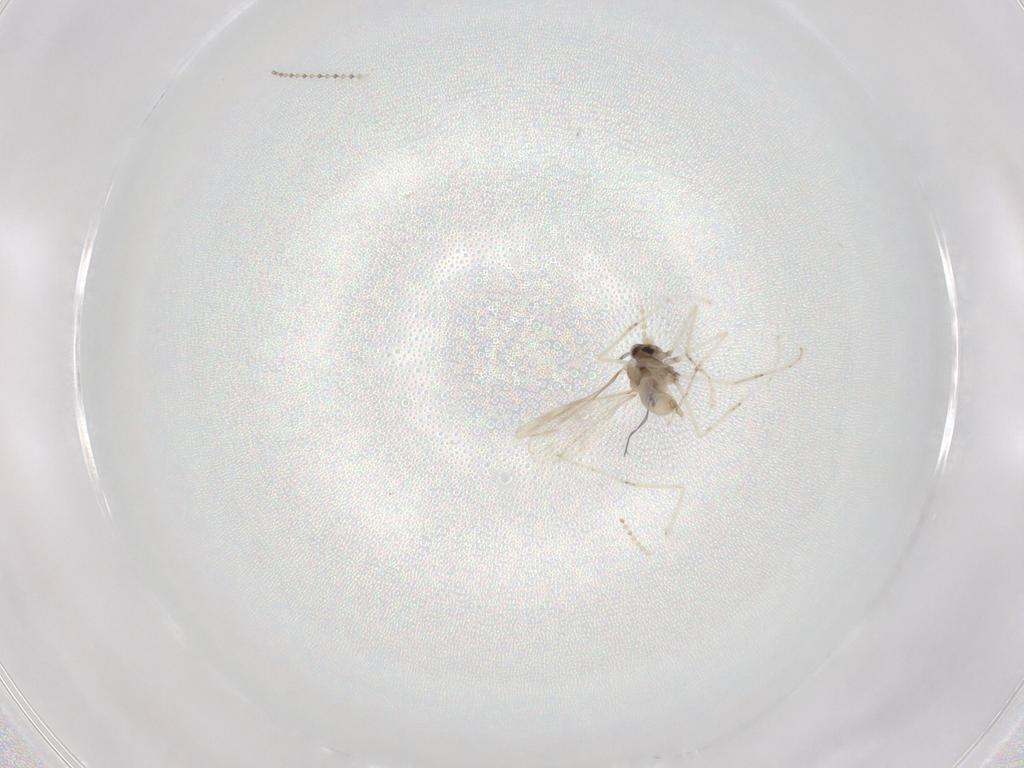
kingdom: Animalia
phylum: Arthropoda
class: Insecta
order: Diptera
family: Cecidomyiidae
